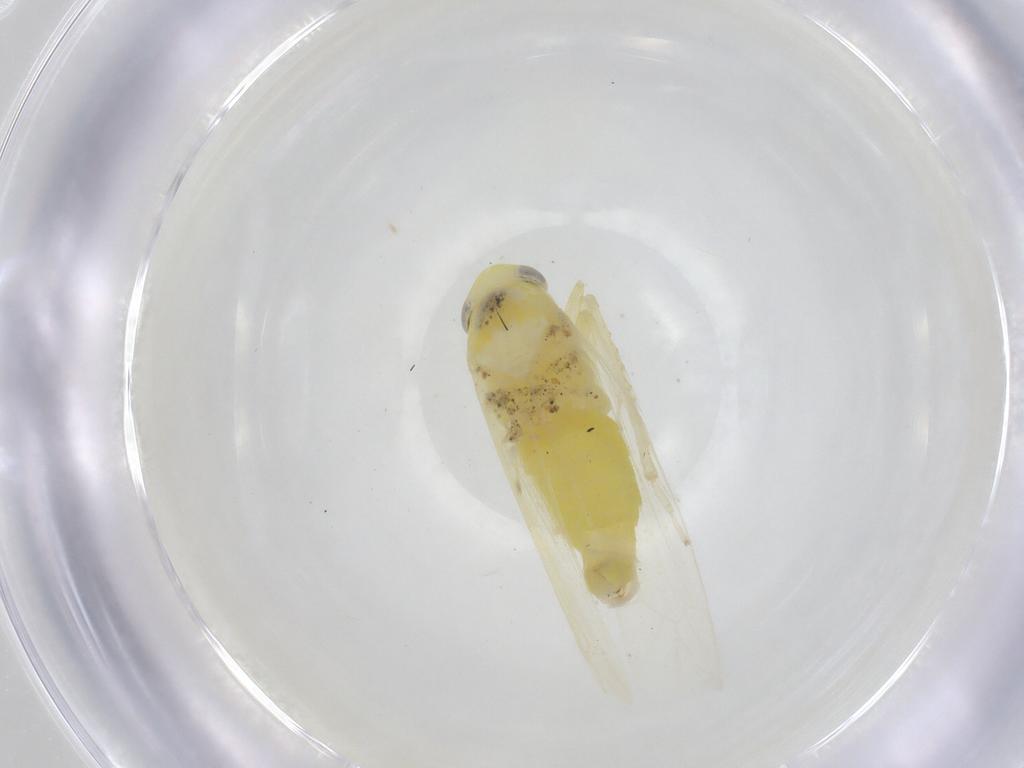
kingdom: Animalia
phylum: Arthropoda
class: Insecta
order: Hemiptera
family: Cicadellidae
